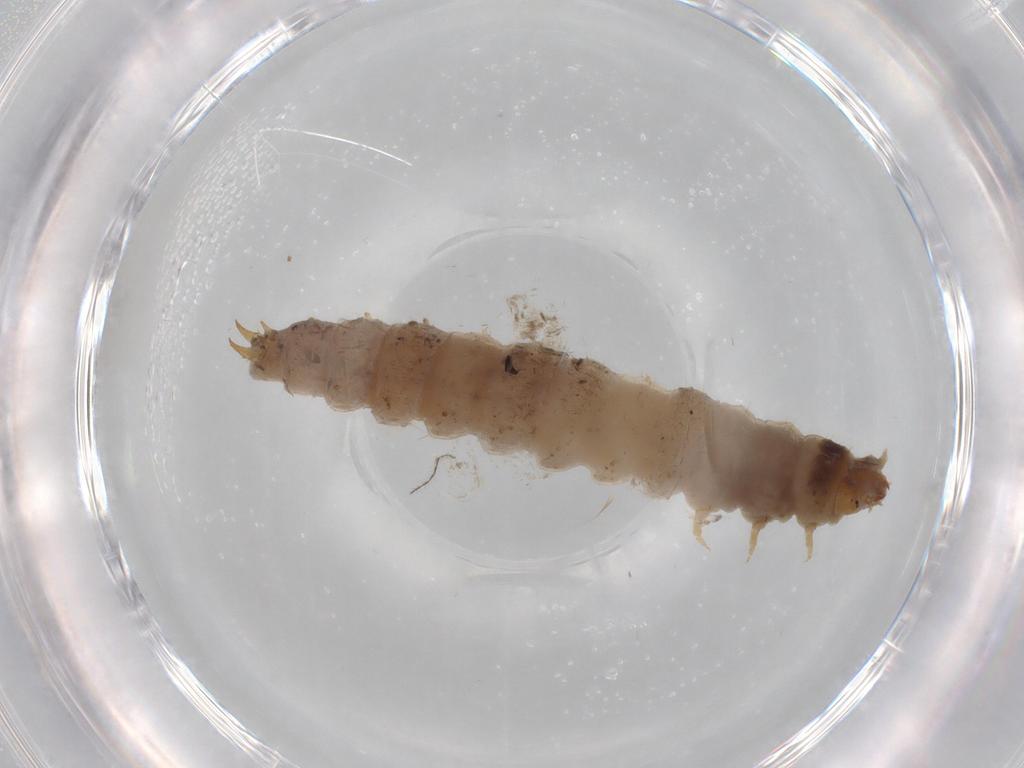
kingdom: Animalia
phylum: Arthropoda
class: Insecta
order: Coleoptera
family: Nitidulidae
